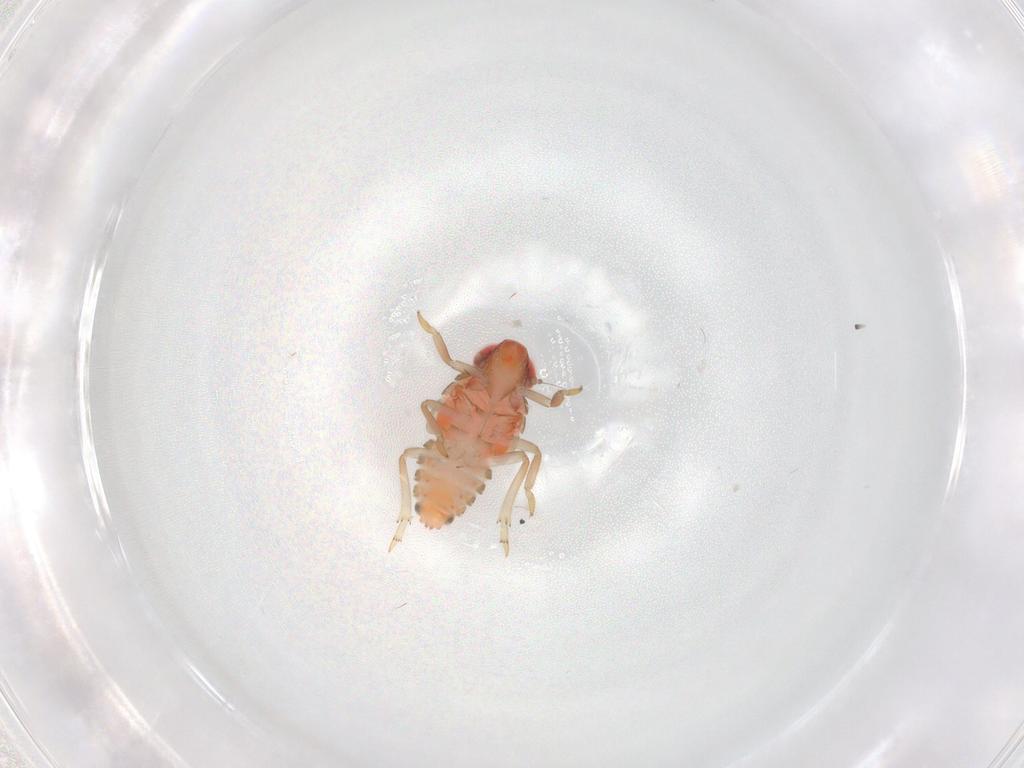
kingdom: Animalia
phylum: Arthropoda
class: Insecta
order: Hemiptera
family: Issidae
